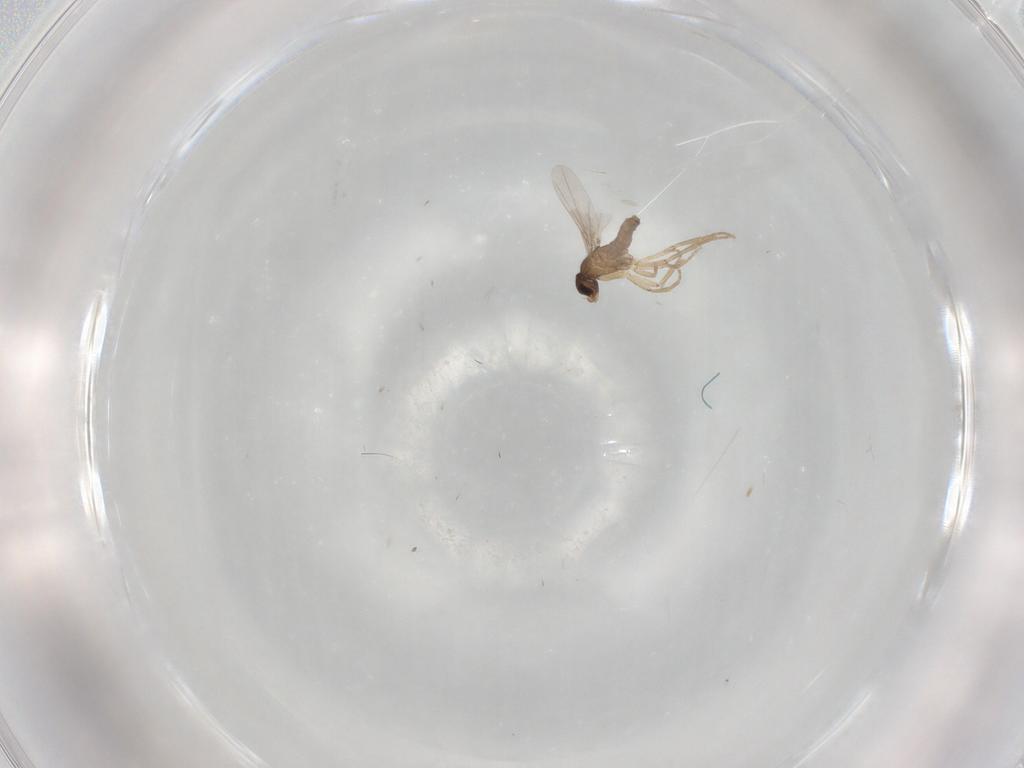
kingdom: Animalia
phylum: Arthropoda
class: Insecta
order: Diptera
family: Phoridae
